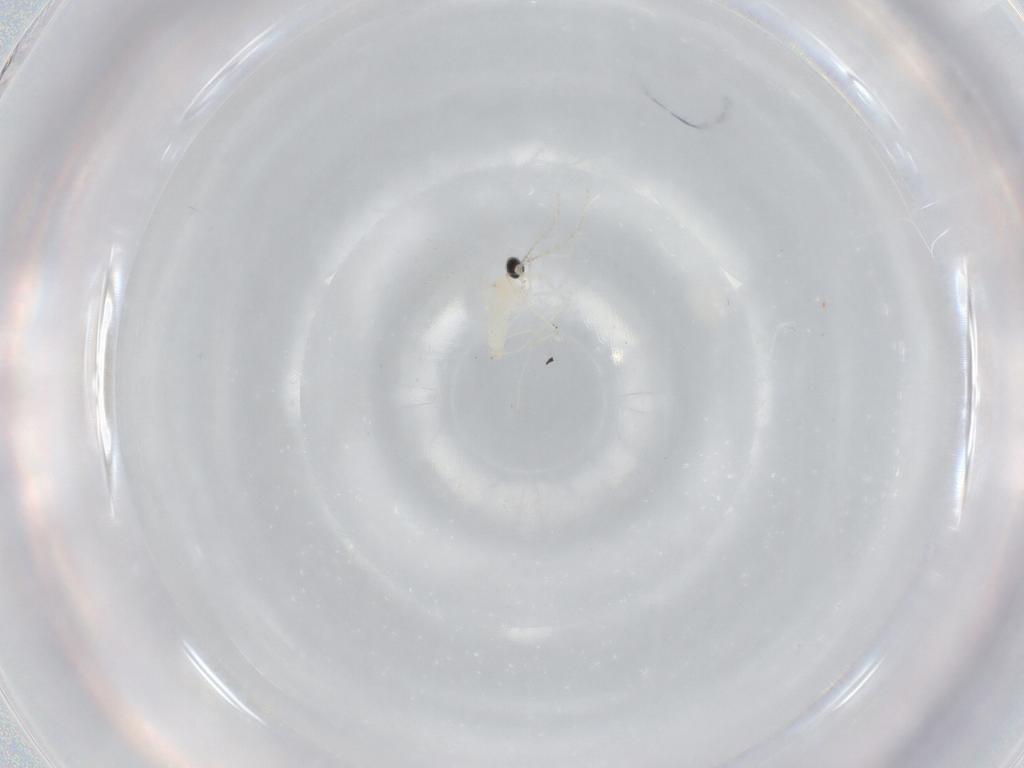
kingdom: Animalia
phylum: Arthropoda
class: Insecta
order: Diptera
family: Cecidomyiidae
